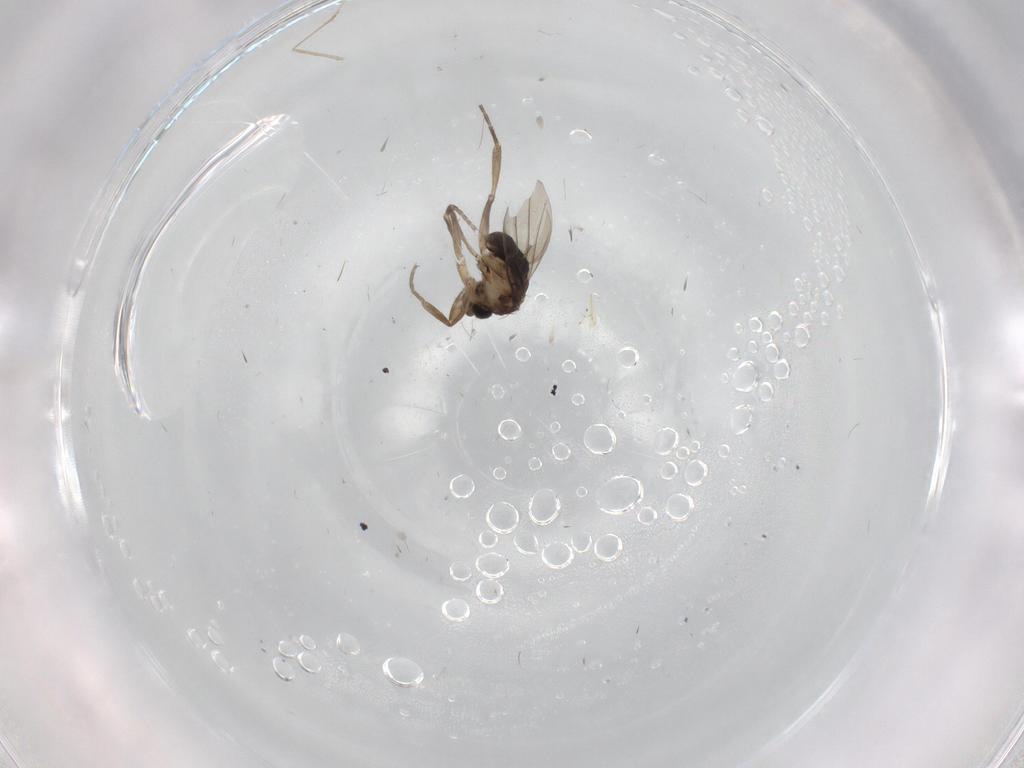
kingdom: Animalia
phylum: Arthropoda
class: Insecta
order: Diptera
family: Phoridae
